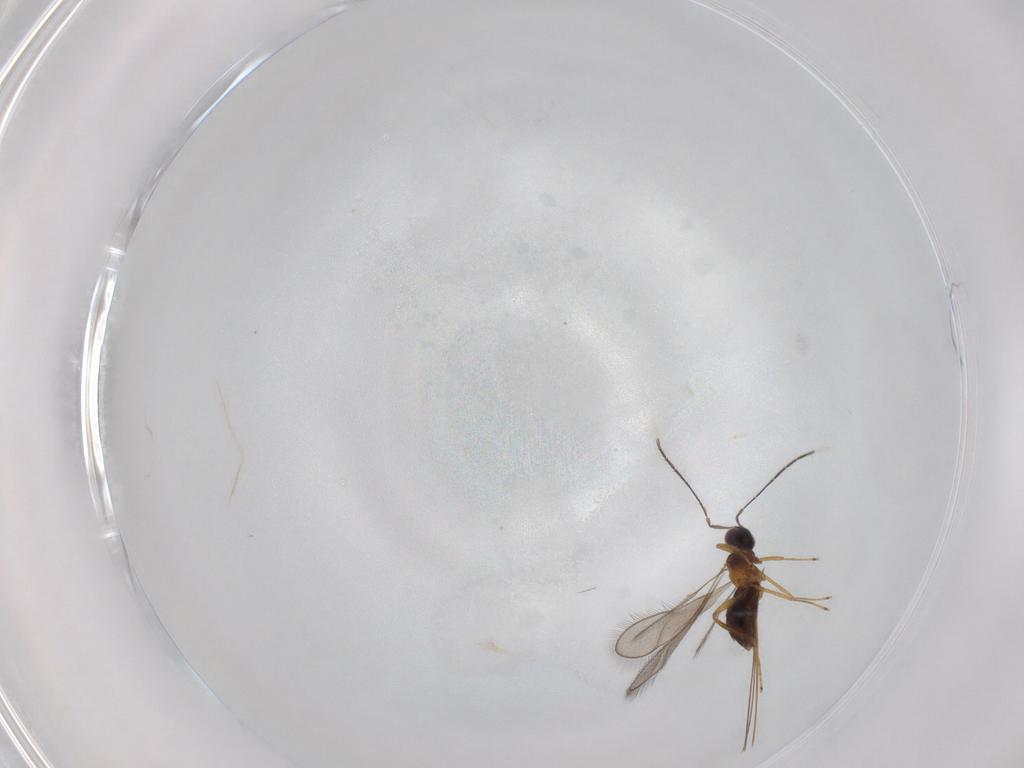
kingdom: Animalia
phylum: Arthropoda
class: Insecta
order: Hymenoptera
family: Mymaridae
